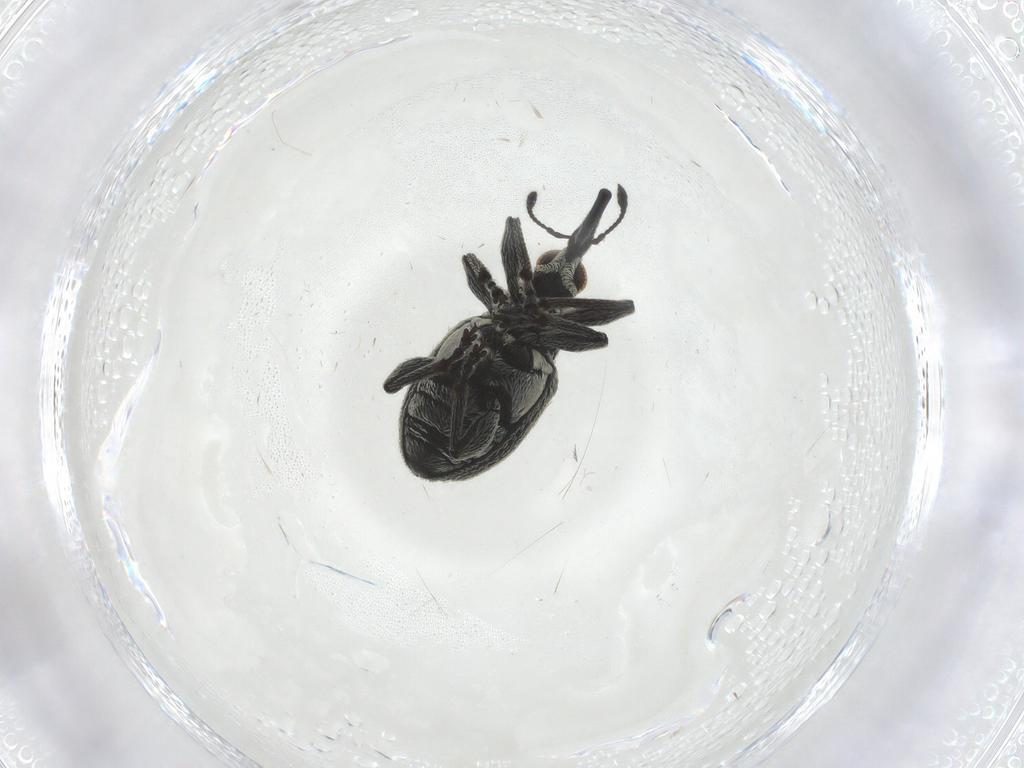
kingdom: Animalia
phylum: Arthropoda
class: Insecta
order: Coleoptera
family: Brentidae
